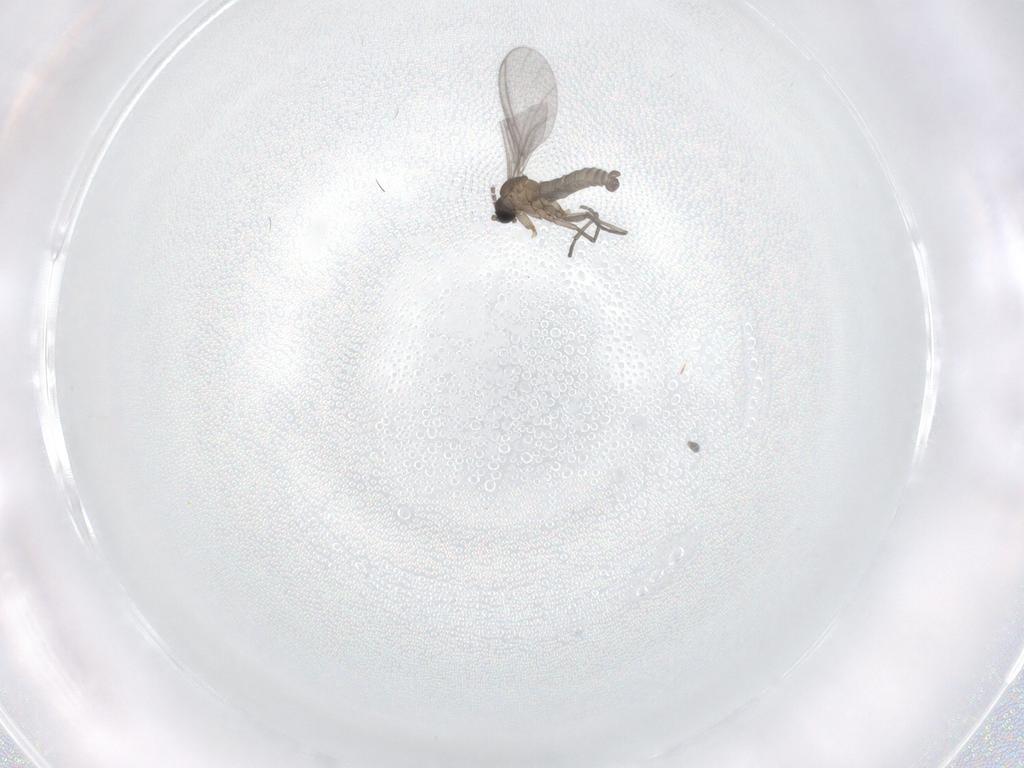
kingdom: Animalia
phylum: Arthropoda
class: Insecta
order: Diptera
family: Sciaridae
